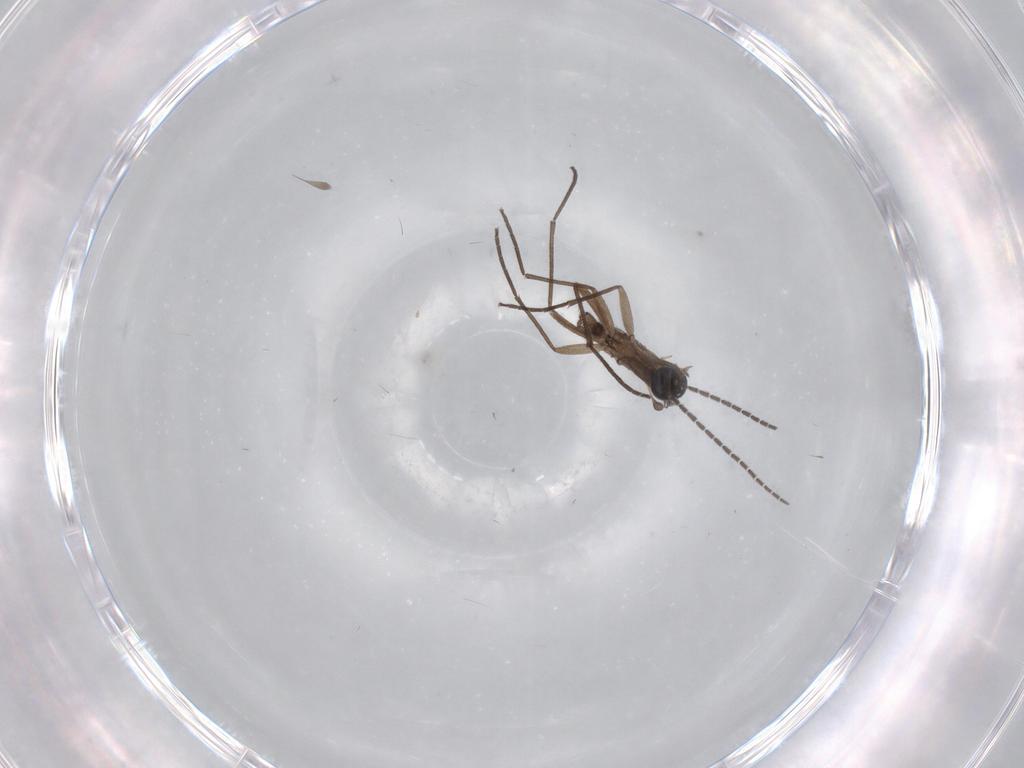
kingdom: Animalia
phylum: Arthropoda
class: Insecta
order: Diptera
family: Sciaridae
